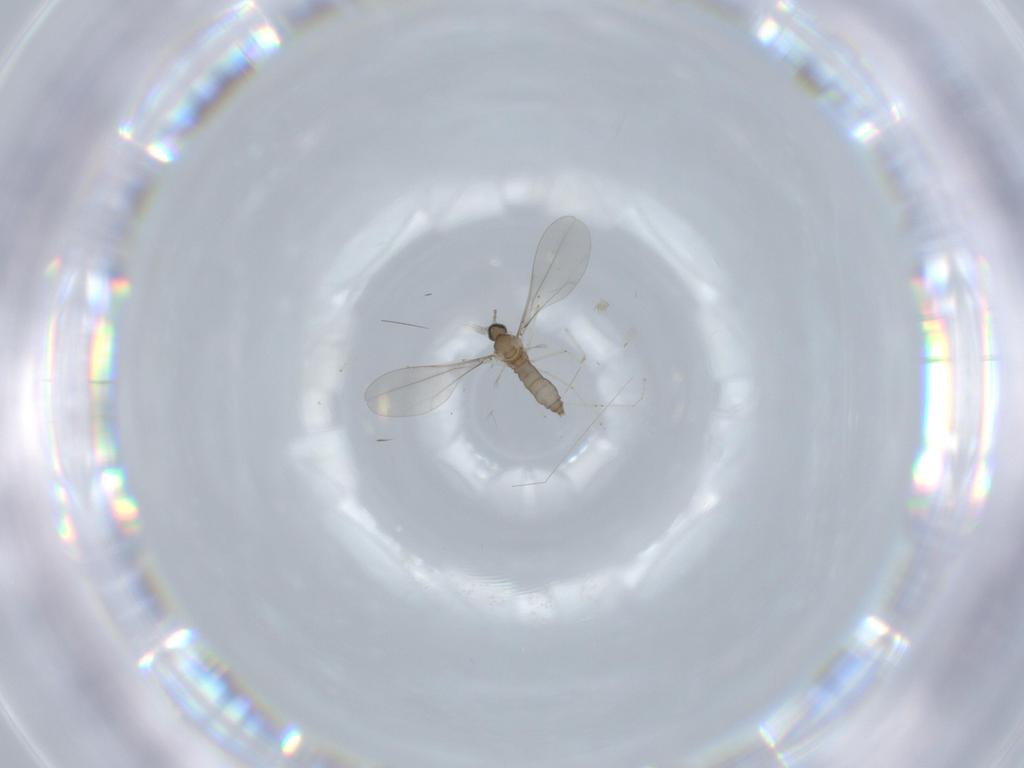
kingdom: Animalia
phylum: Arthropoda
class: Insecta
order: Diptera
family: Cecidomyiidae
